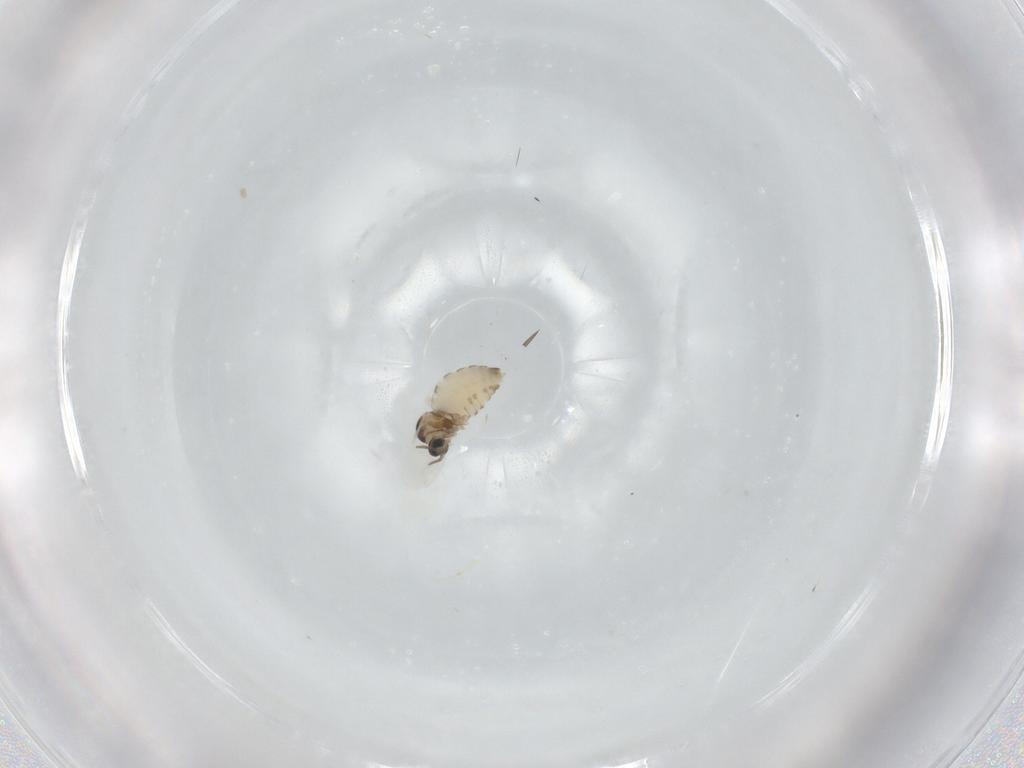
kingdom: Animalia
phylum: Arthropoda
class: Insecta
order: Diptera
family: Cecidomyiidae
